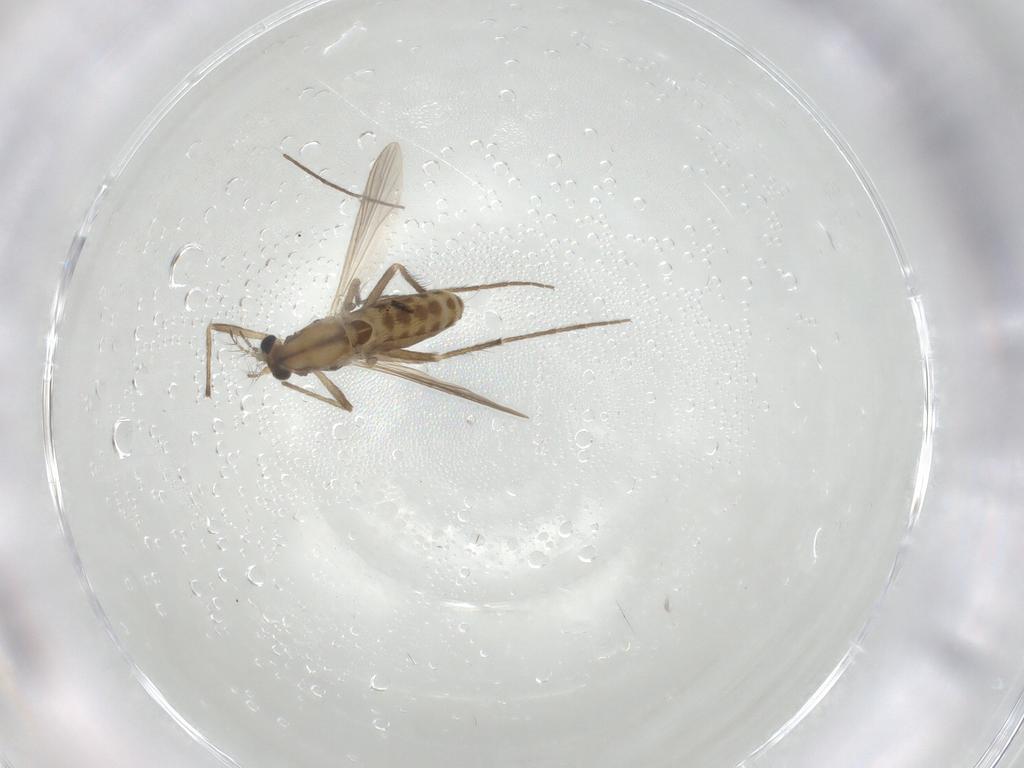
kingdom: Animalia
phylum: Arthropoda
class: Insecta
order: Diptera
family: Chironomidae
